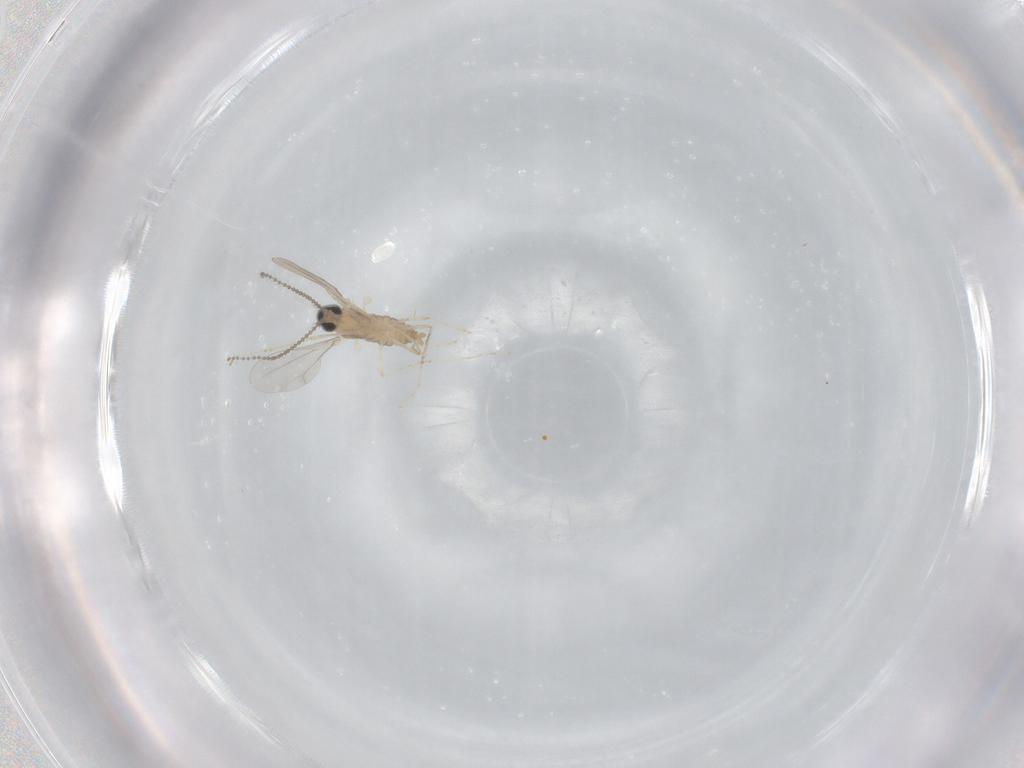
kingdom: Animalia
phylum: Arthropoda
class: Insecta
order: Diptera
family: Cecidomyiidae
